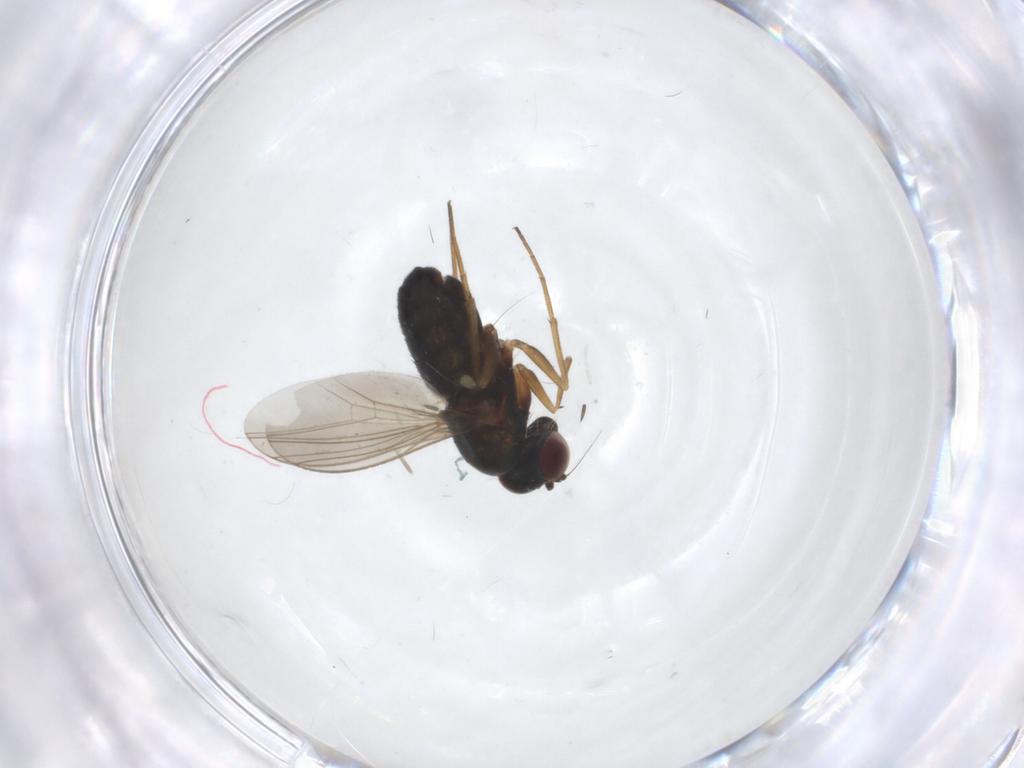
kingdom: Animalia
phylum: Arthropoda
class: Insecta
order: Diptera
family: Dolichopodidae
